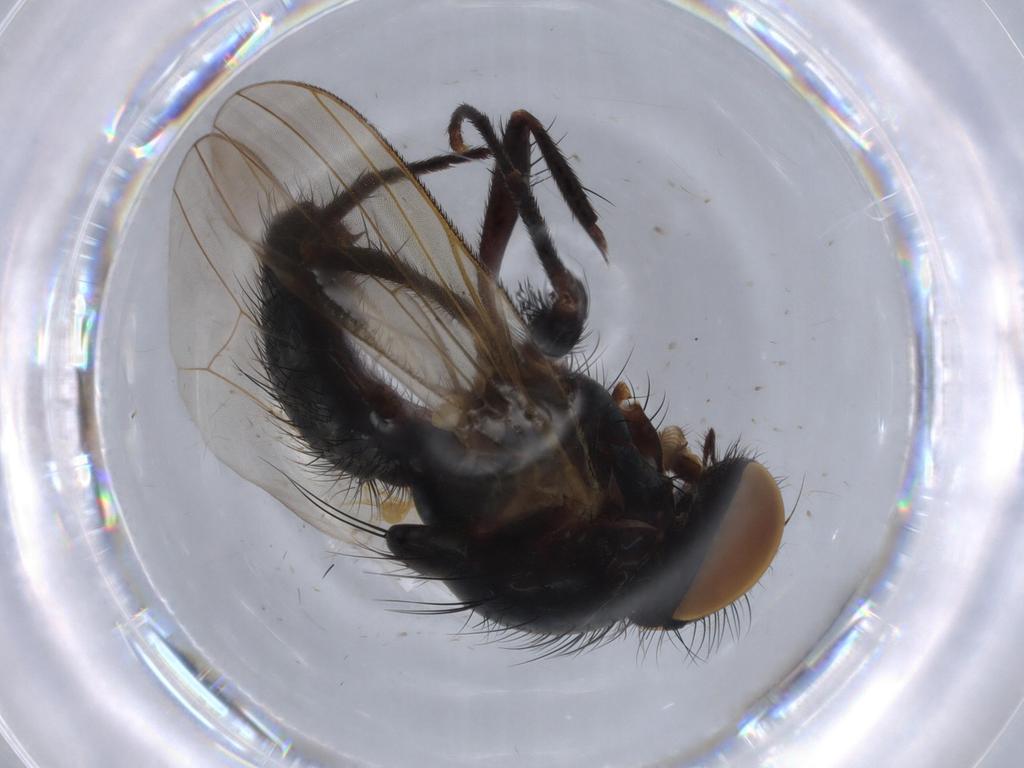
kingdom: Animalia
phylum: Arthropoda
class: Insecta
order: Diptera
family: Fannia
